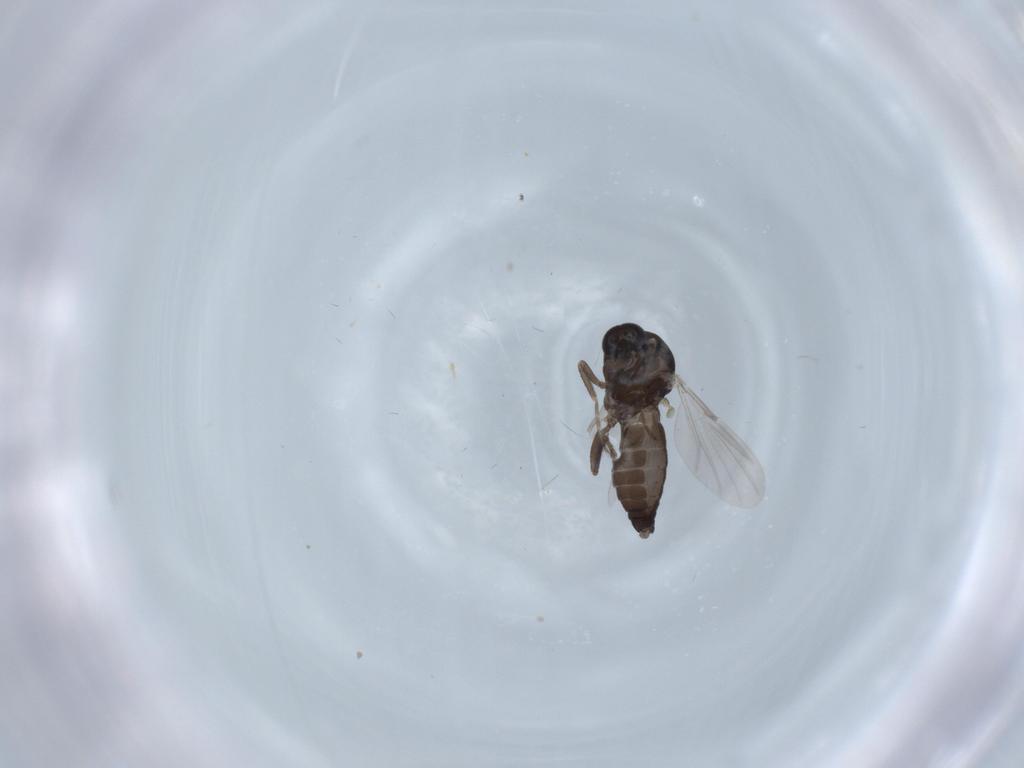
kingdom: Animalia
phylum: Arthropoda
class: Insecta
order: Diptera
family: Ceratopogonidae
